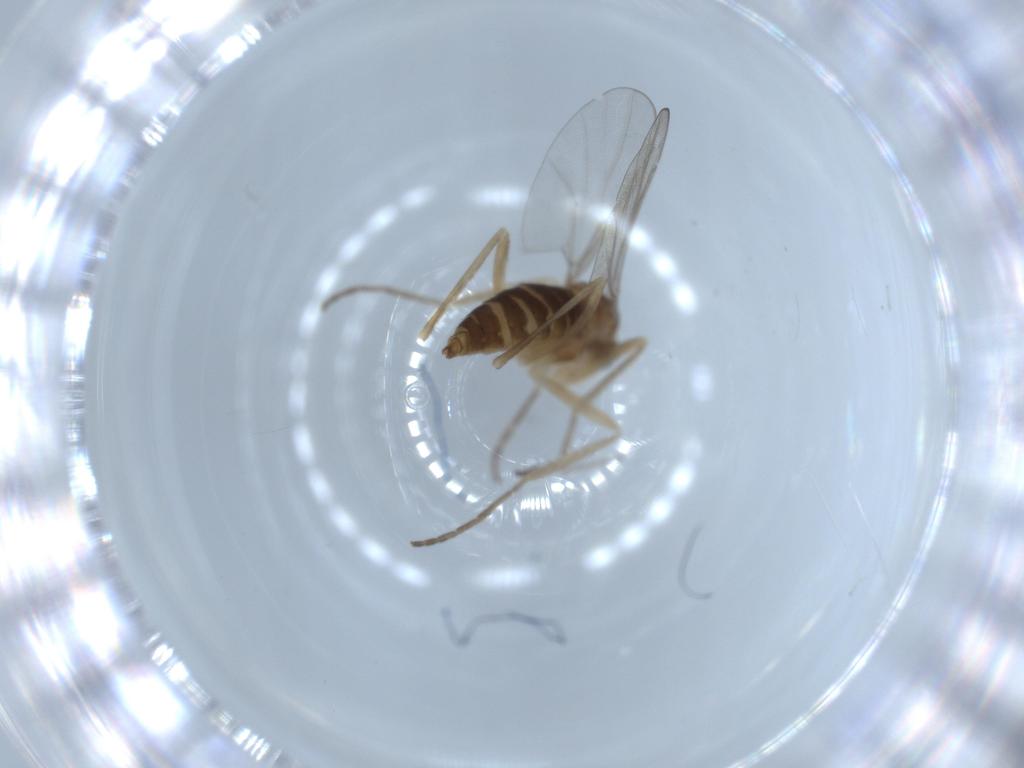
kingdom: Animalia
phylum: Arthropoda
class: Insecta
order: Diptera
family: Cecidomyiidae
